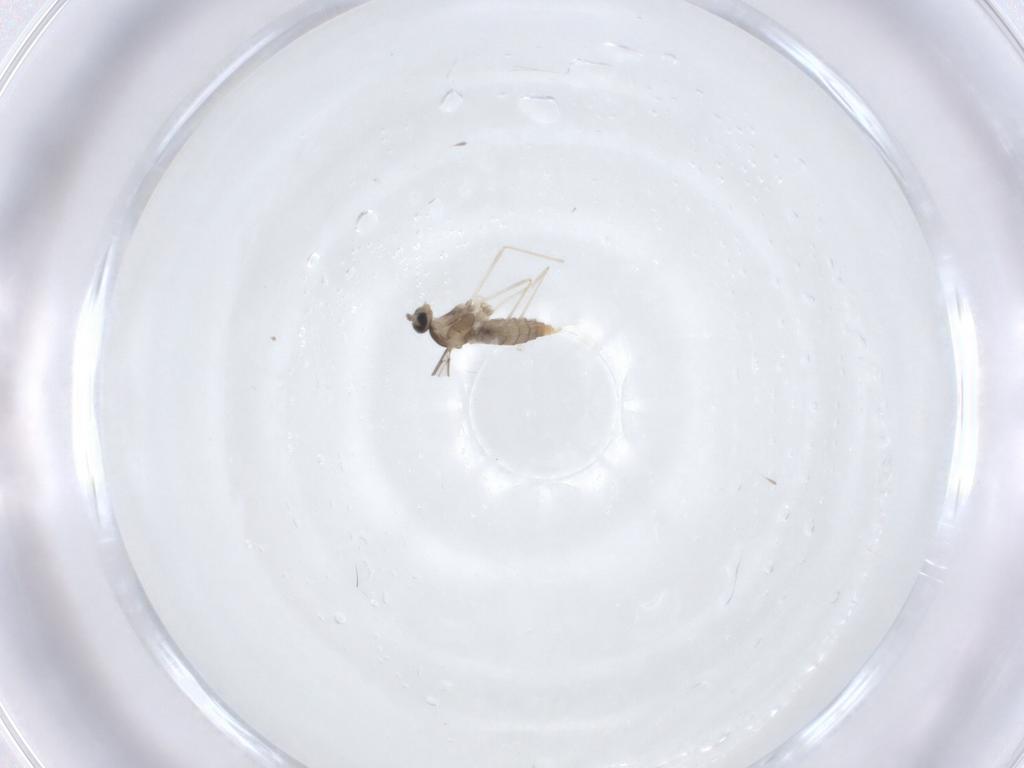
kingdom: Animalia
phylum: Arthropoda
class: Insecta
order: Diptera
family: Cecidomyiidae
